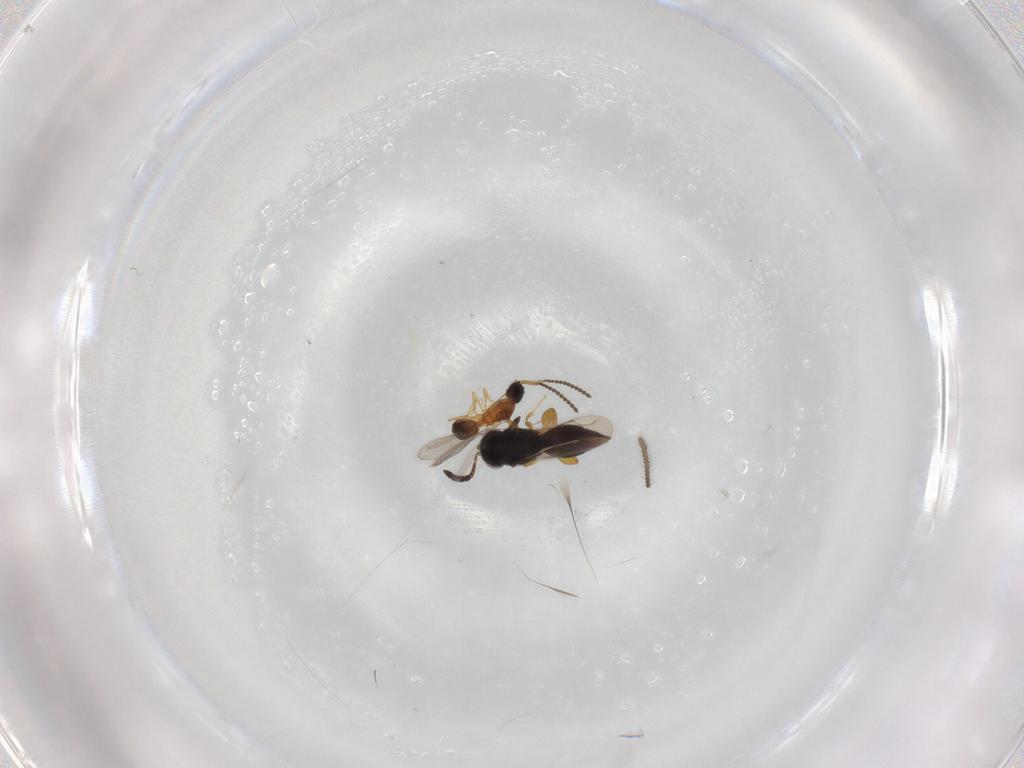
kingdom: Animalia
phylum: Arthropoda
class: Insecta
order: Hymenoptera
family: Diapriidae
